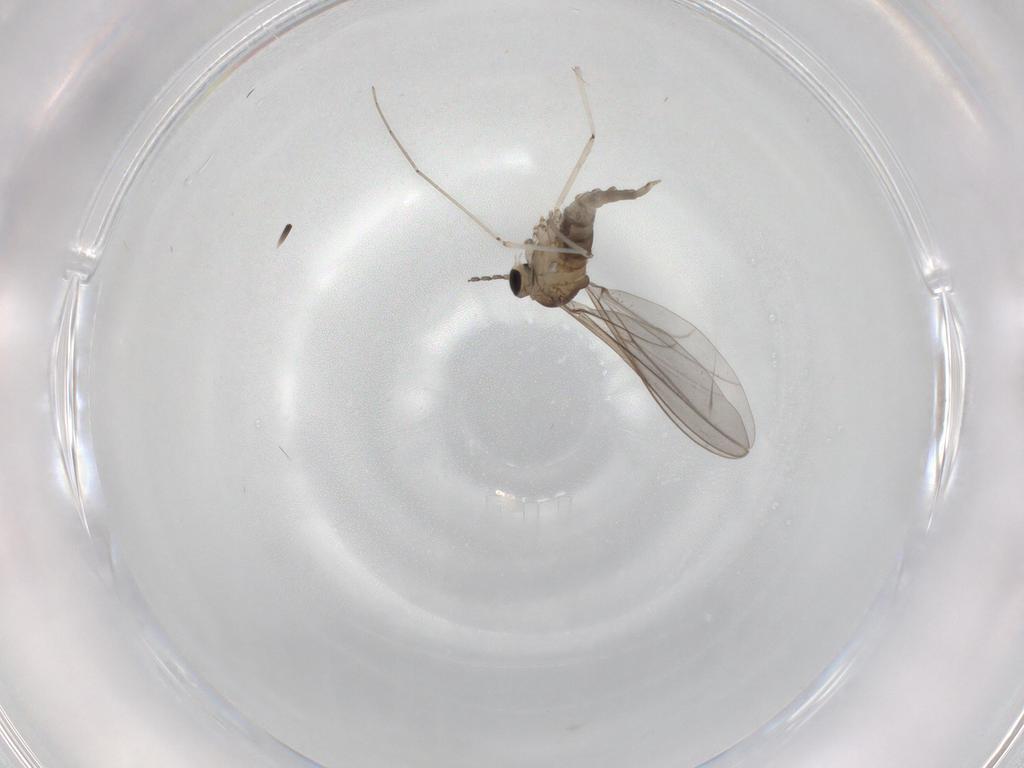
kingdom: Animalia
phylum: Arthropoda
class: Insecta
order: Diptera
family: Cecidomyiidae
